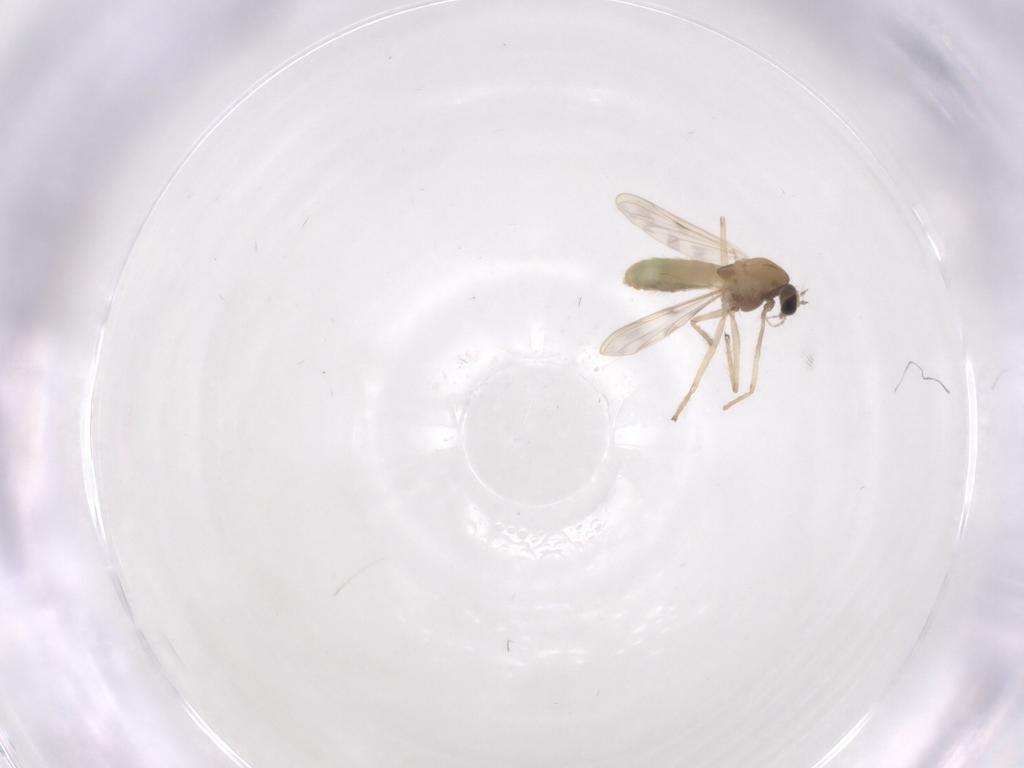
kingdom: Animalia
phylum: Arthropoda
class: Insecta
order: Diptera
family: Chironomidae
